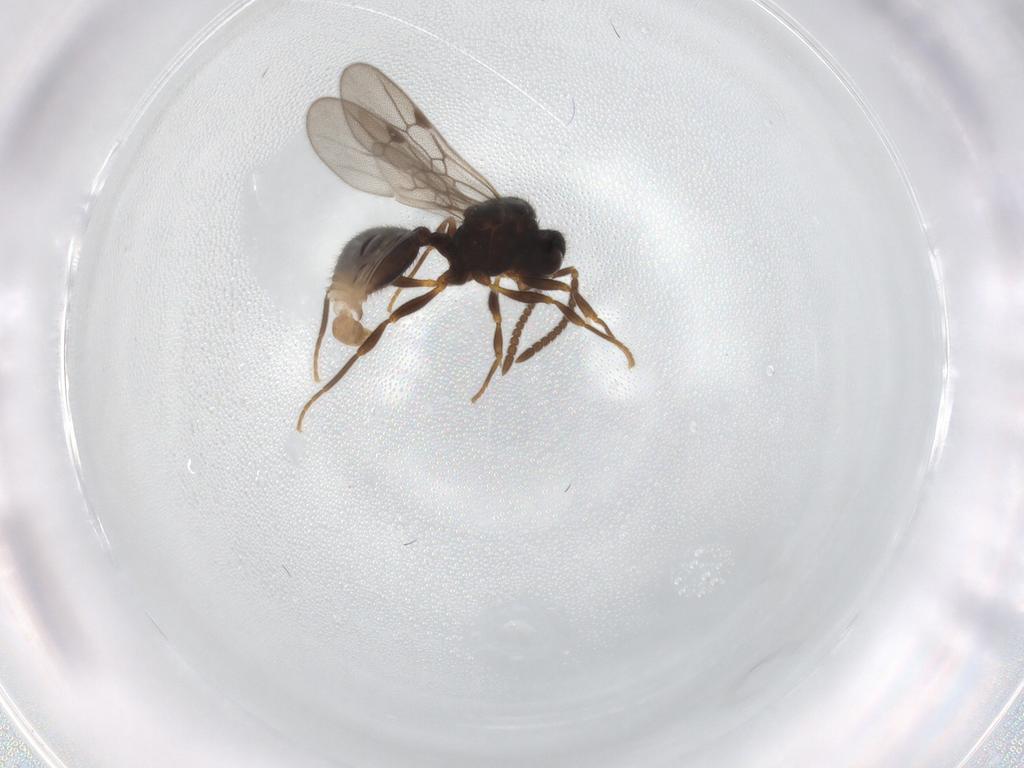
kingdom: Animalia
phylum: Arthropoda
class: Insecta
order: Hymenoptera
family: Formicidae
